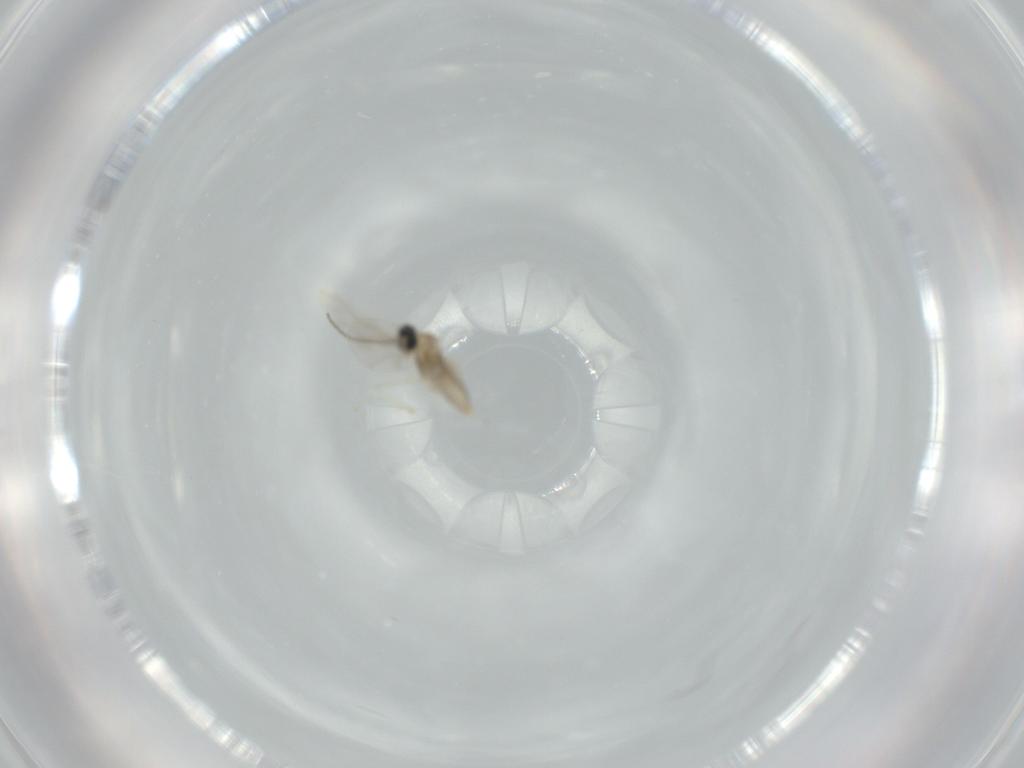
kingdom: Animalia
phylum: Arthropoda
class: Insecta
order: Diptera
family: Cecidomyiidae
